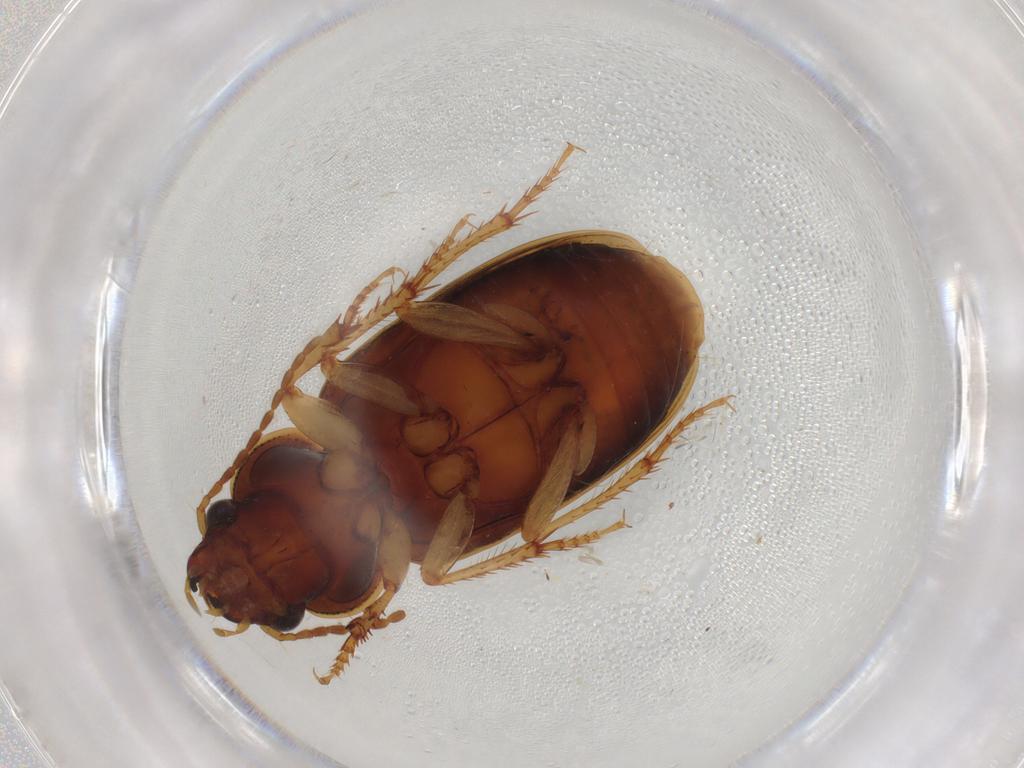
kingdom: Animalia
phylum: Arthropoda
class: Insecta
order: Coleoptera
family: Carabidae
